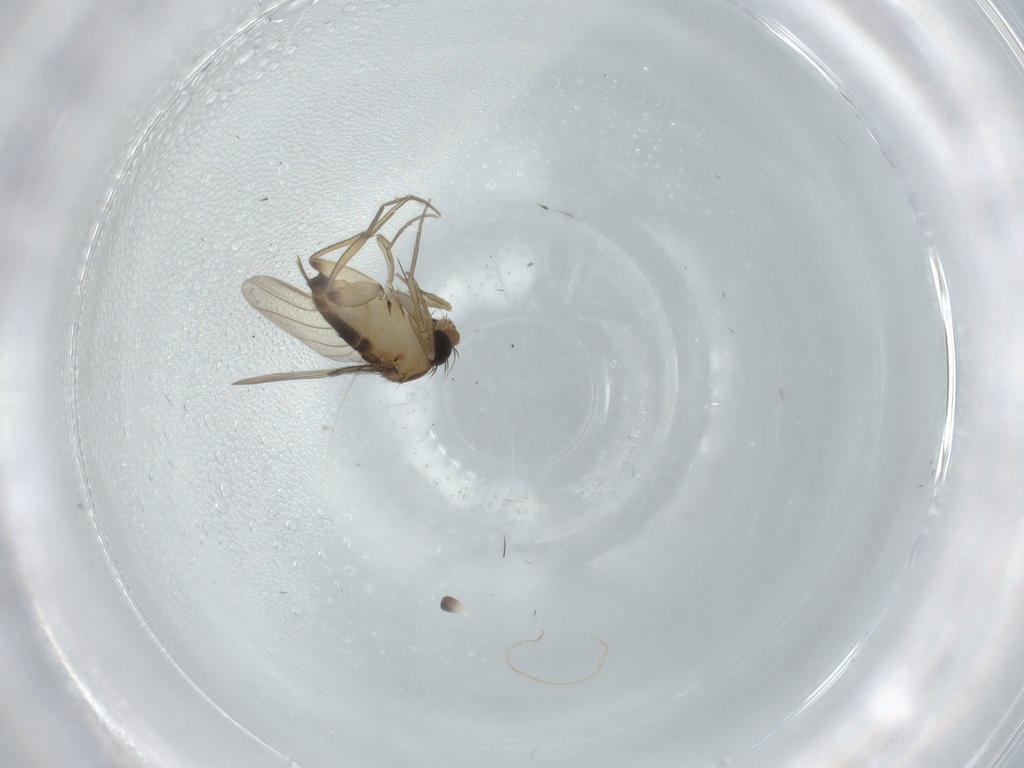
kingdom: Animalia
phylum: Arthropoda
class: Insecta
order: Diptera
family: Phoridae
